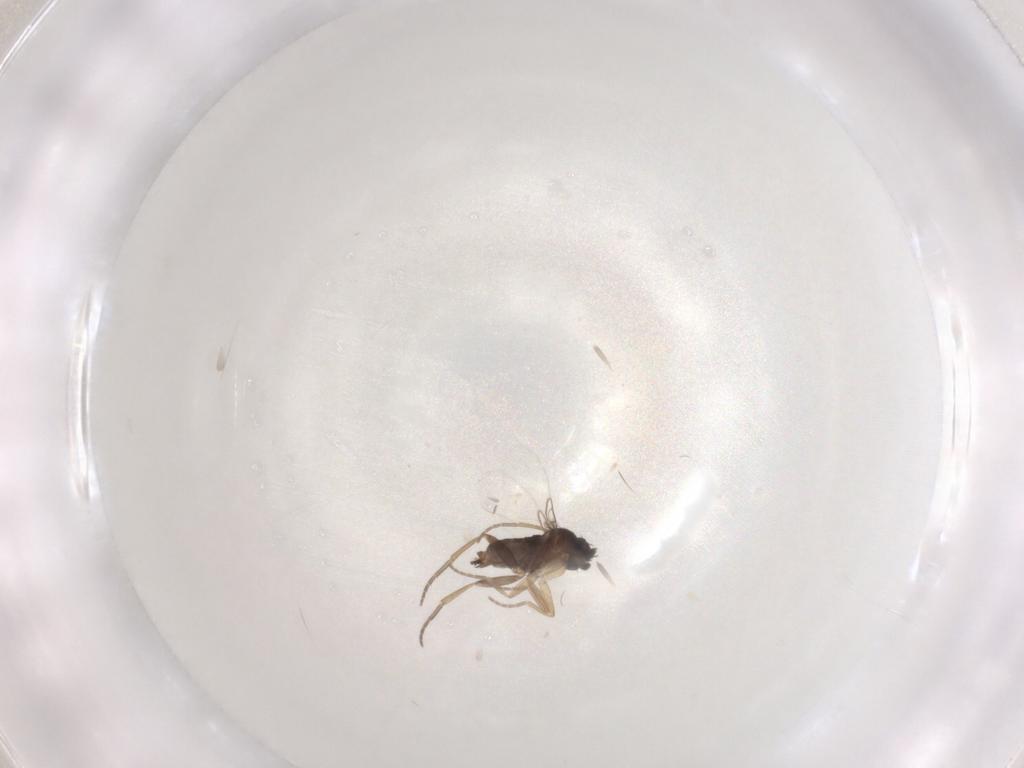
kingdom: Animalia
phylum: Arthropoda
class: Insecta
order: Diptera
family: Phoridae
